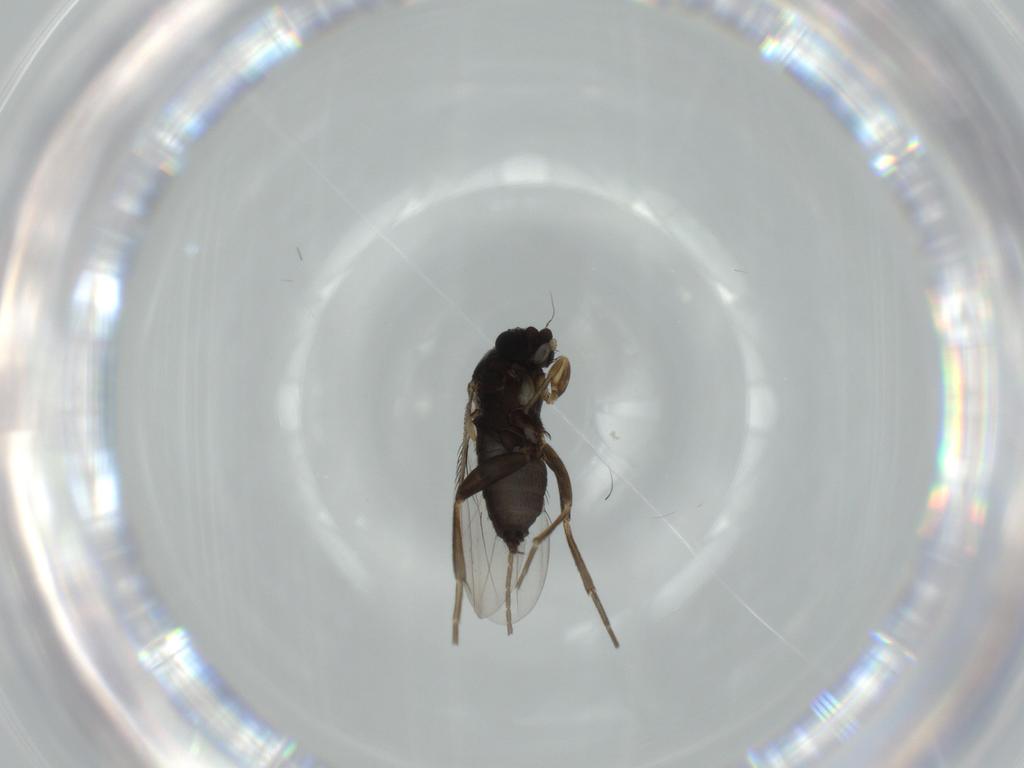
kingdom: Animalia
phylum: Arthropoda
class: Insecta
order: Diptera
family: Phoridae
